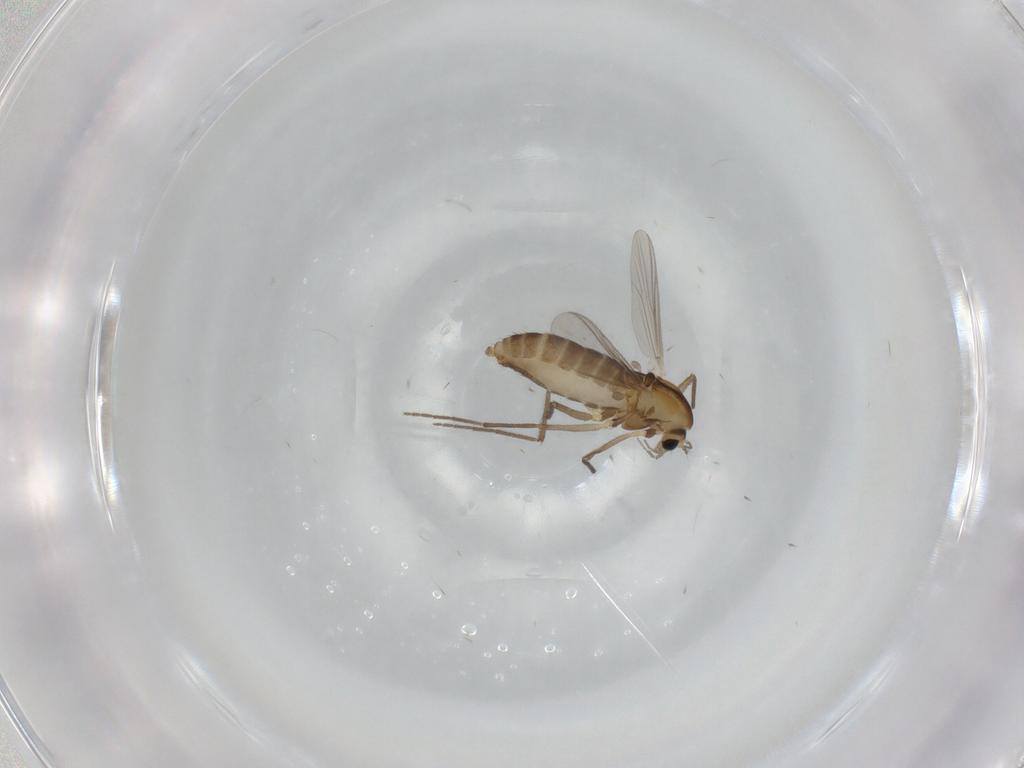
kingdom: Animalia
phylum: Arthropoda
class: Insecta
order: Diptera
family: Chironomidae
